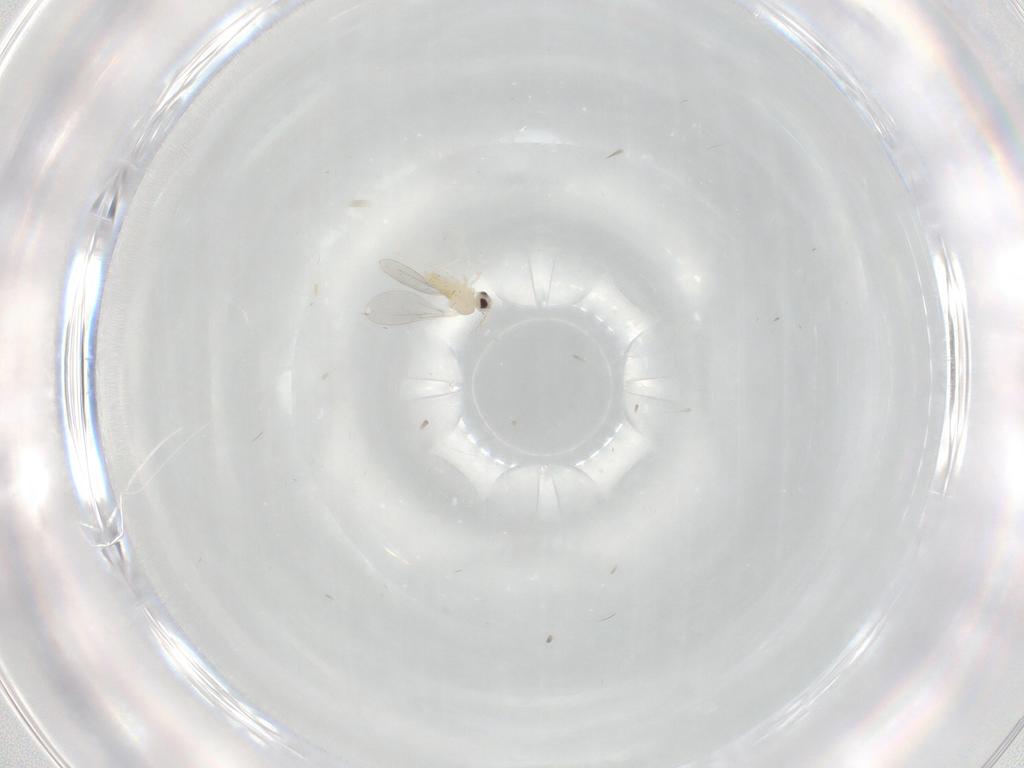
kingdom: Animalia
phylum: Arthropoda
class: Insecta
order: Diptera
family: Cecidomyiidae
